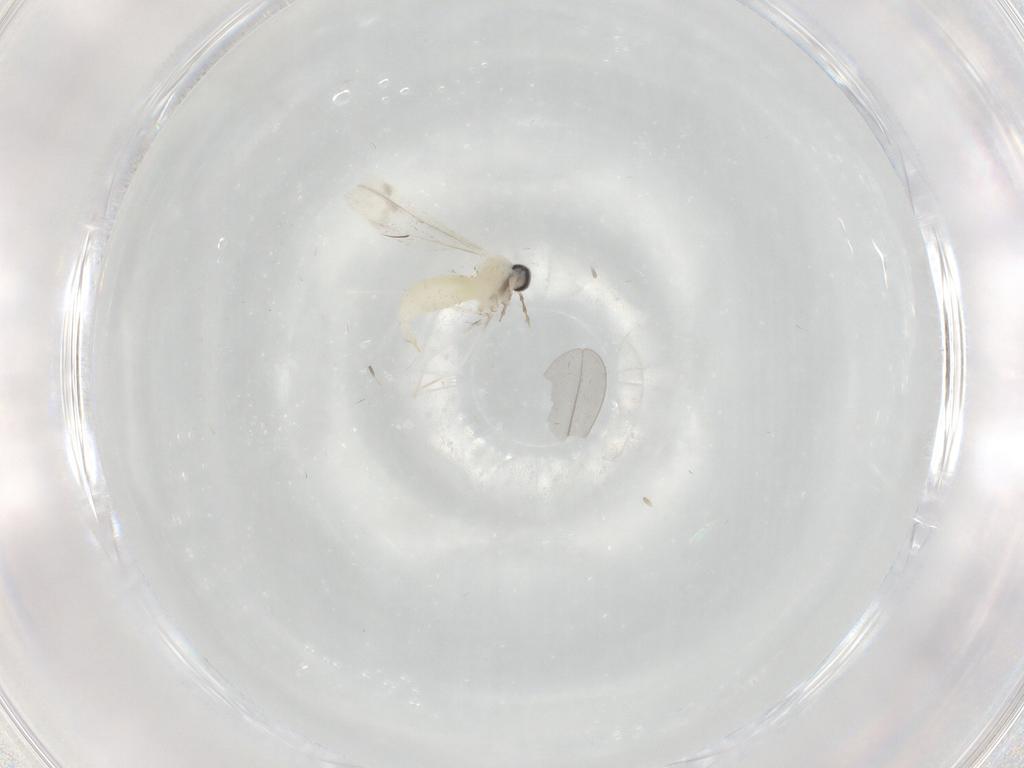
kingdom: Animalia
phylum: Arthropoda
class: Insecta
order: Diptera
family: Cecidomyiidae
